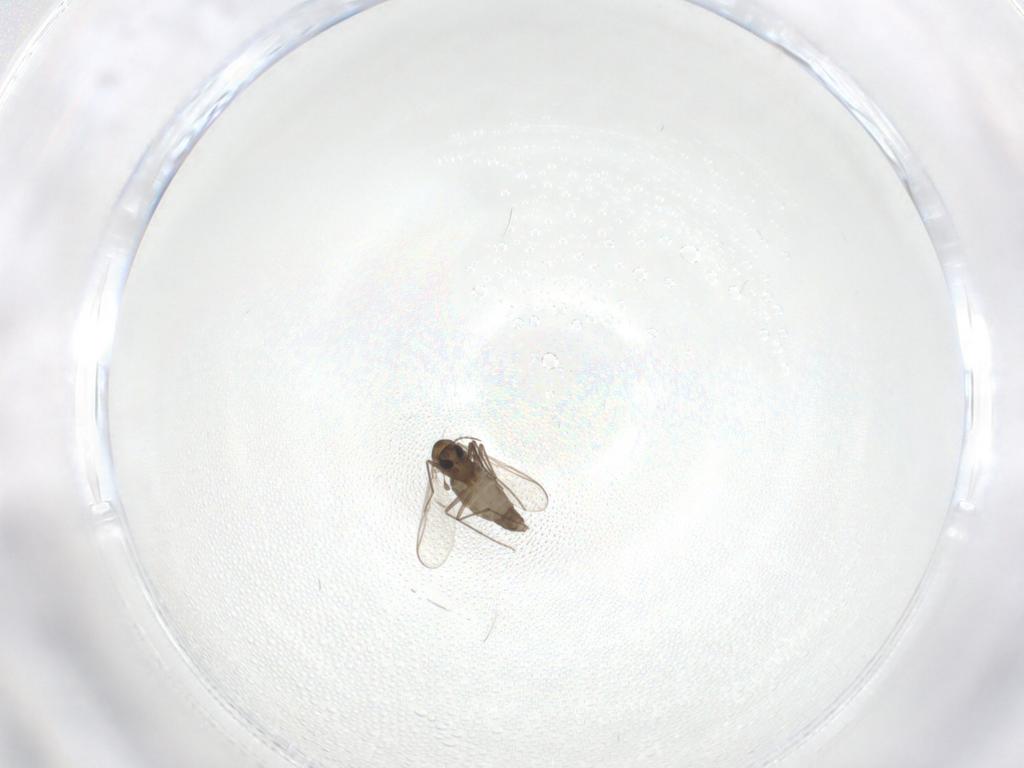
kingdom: Animalia
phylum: Arthropoda
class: Insecta
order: Diptera
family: Chironomidae
